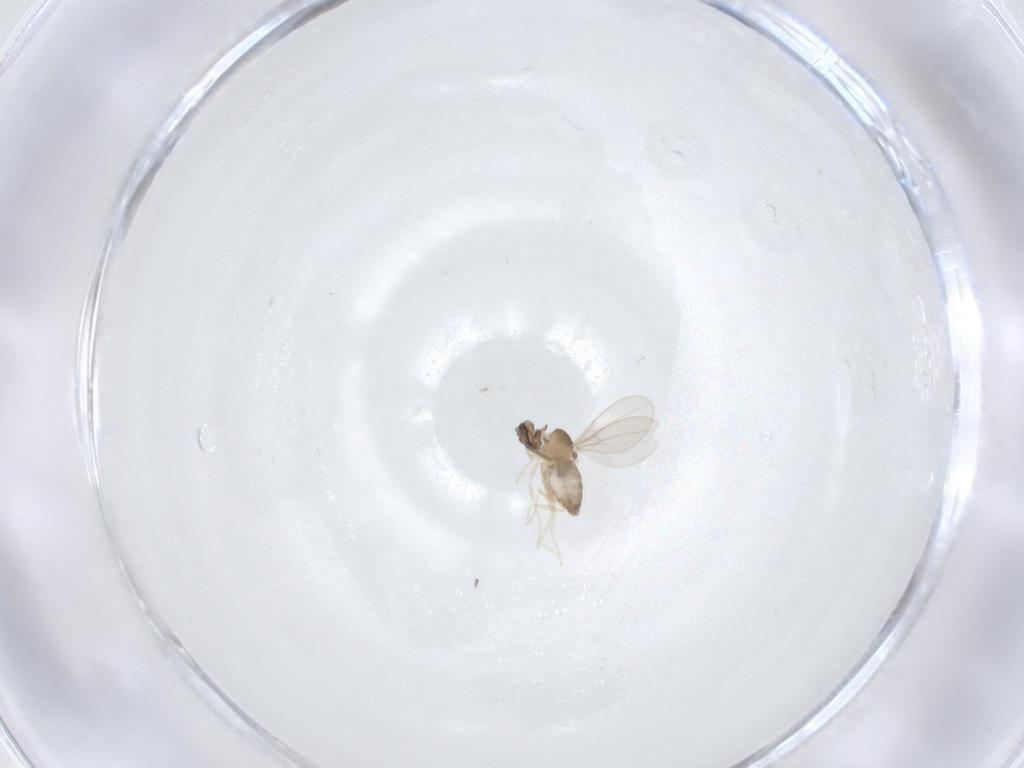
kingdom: Animalia
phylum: Arthropoda
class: Insecta
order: Diptera
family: Cecidomyiidae
